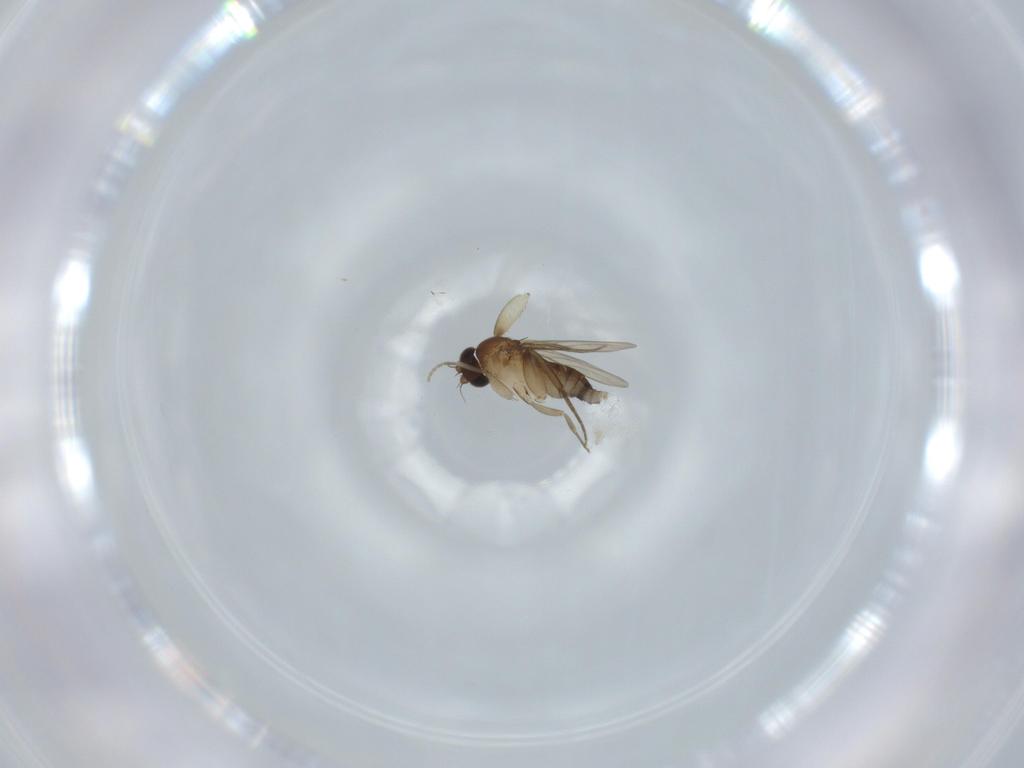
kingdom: Animalia
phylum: Arthropoda
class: Insecta
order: Diptera
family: Phoridae
